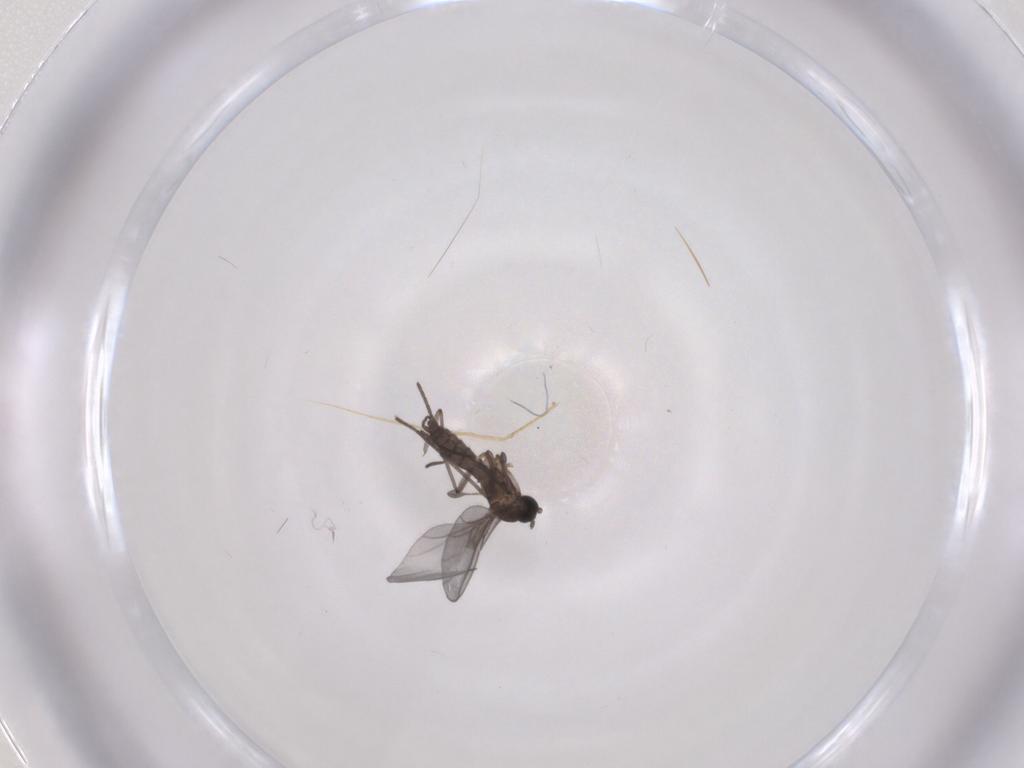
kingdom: Animalia
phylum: Arthropoda
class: Insecta
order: Diptera
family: Sciaridae
